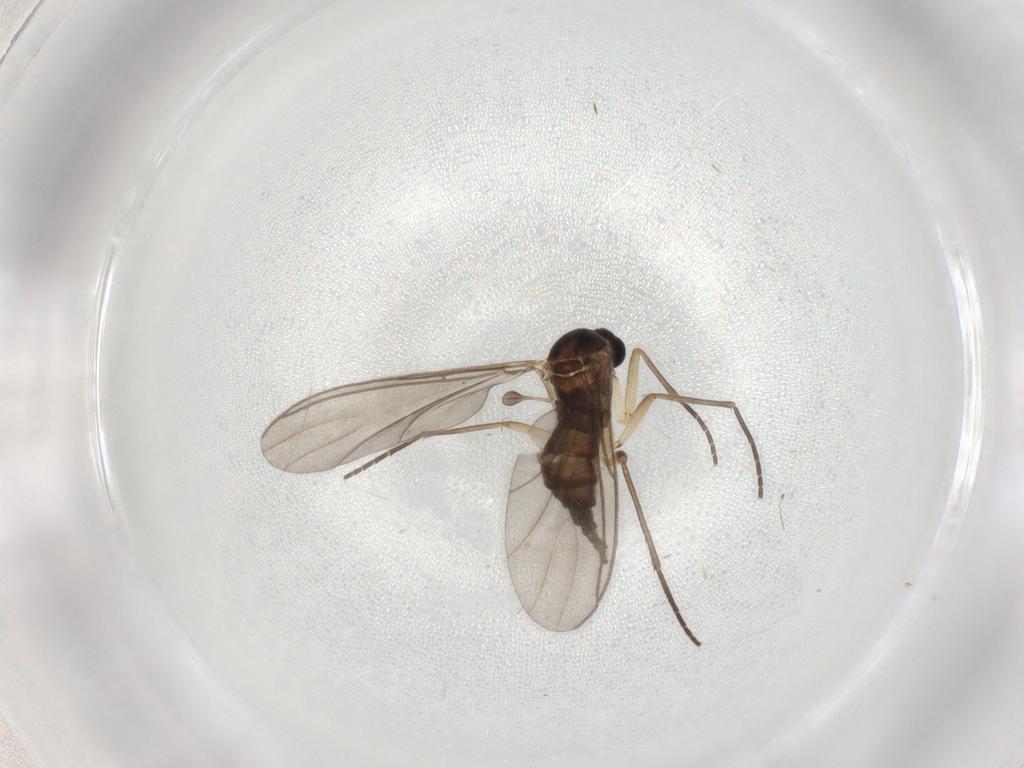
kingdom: Animalia
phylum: Arthropoda
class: Insecta
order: Diptera
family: Sciaridae
